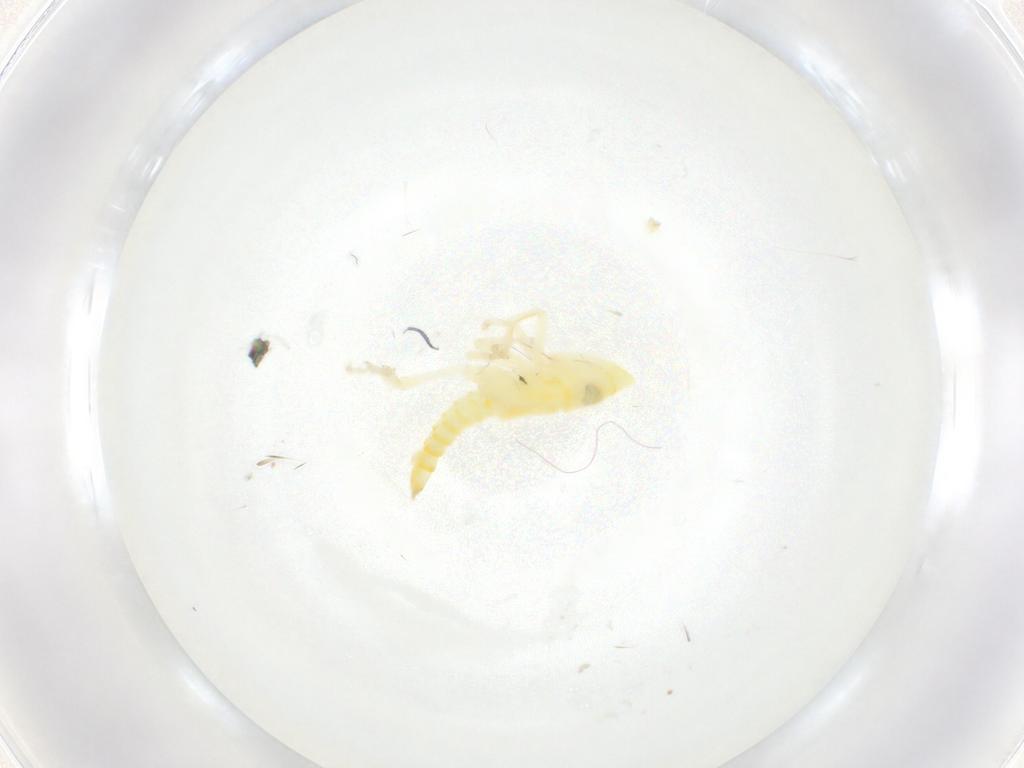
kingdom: Animalia
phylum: Arthropoda
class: Insecta
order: Hemiptera
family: Cicadellidae
